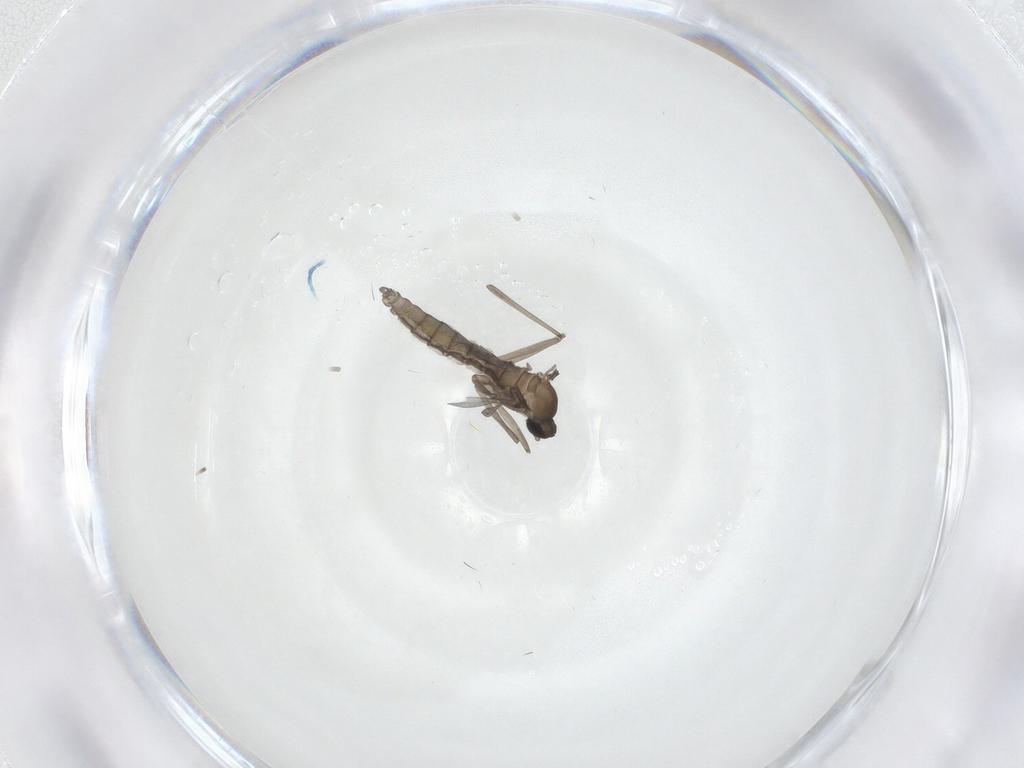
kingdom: Animalia
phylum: Arthropoda
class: Insecta
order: Diptera
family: Cecidomyiidae
